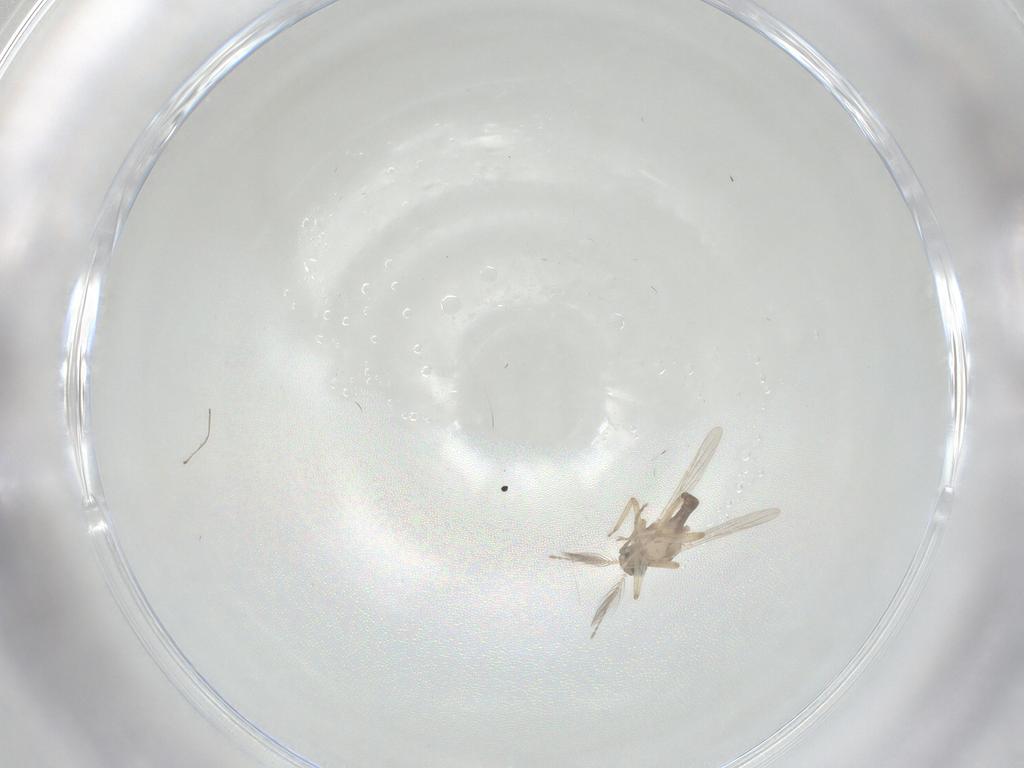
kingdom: Animalia
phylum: Arthropoda
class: Insecta
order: Diptera
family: Ceratopogonidae
